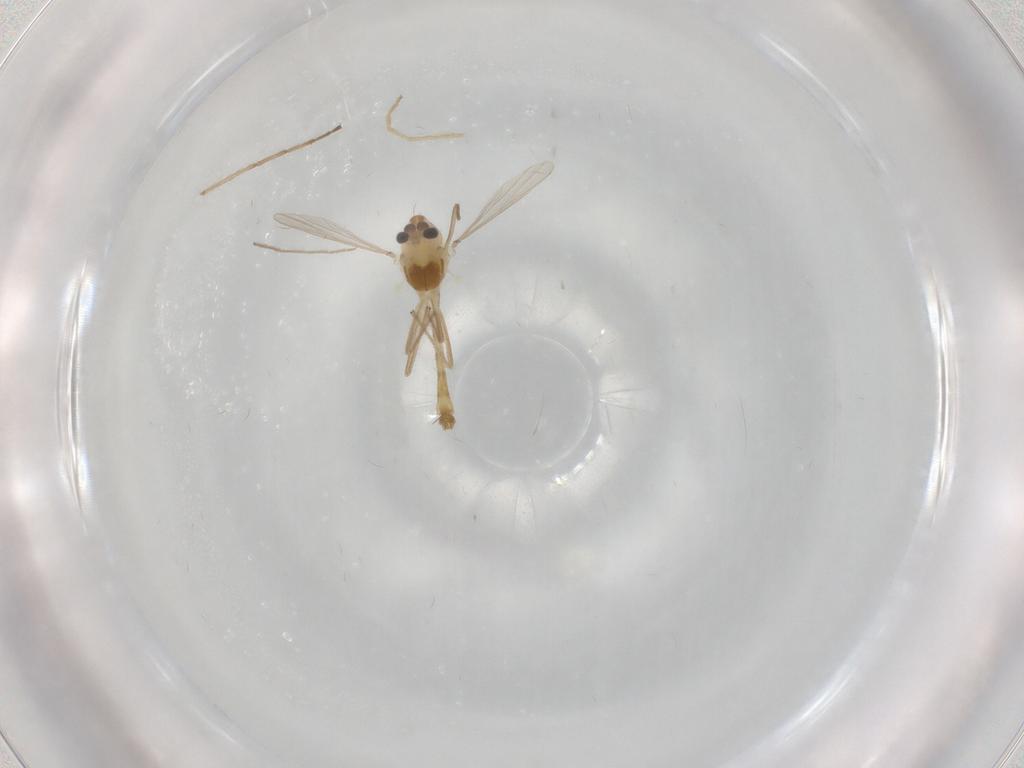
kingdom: Animalia
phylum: Arthropoda
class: Insecta
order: Diptera
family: Chironomidae
